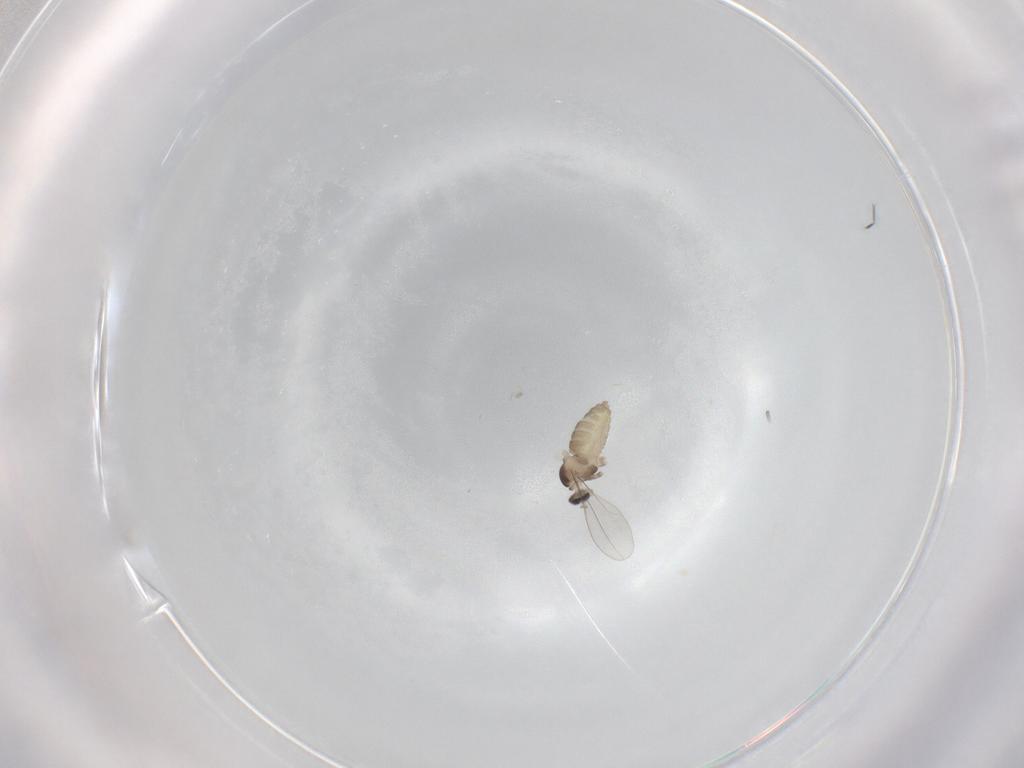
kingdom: Animalia
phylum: Arthropoda
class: Insecta
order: Diptera
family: Cecidomyiidae
